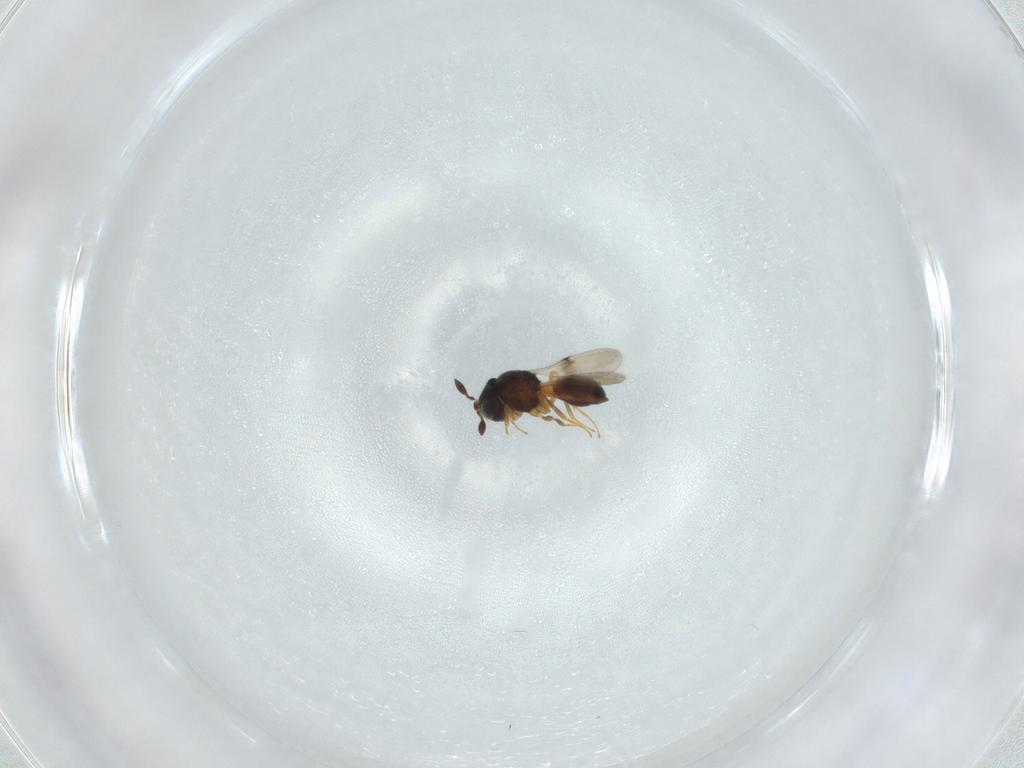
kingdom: Animalia
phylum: Arthropoda
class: Insecta
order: Hymenoptera
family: Scelionidae
